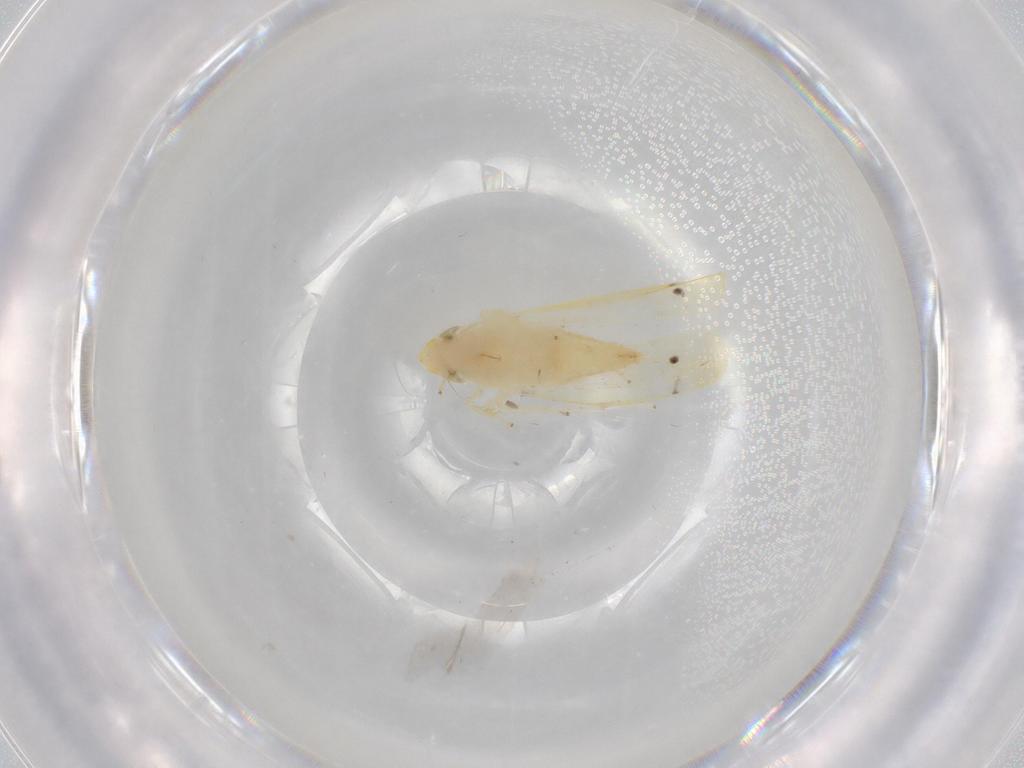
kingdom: Animalia
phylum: Arthropoda
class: Insecta
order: Hemiptera
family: Cicadellidae
